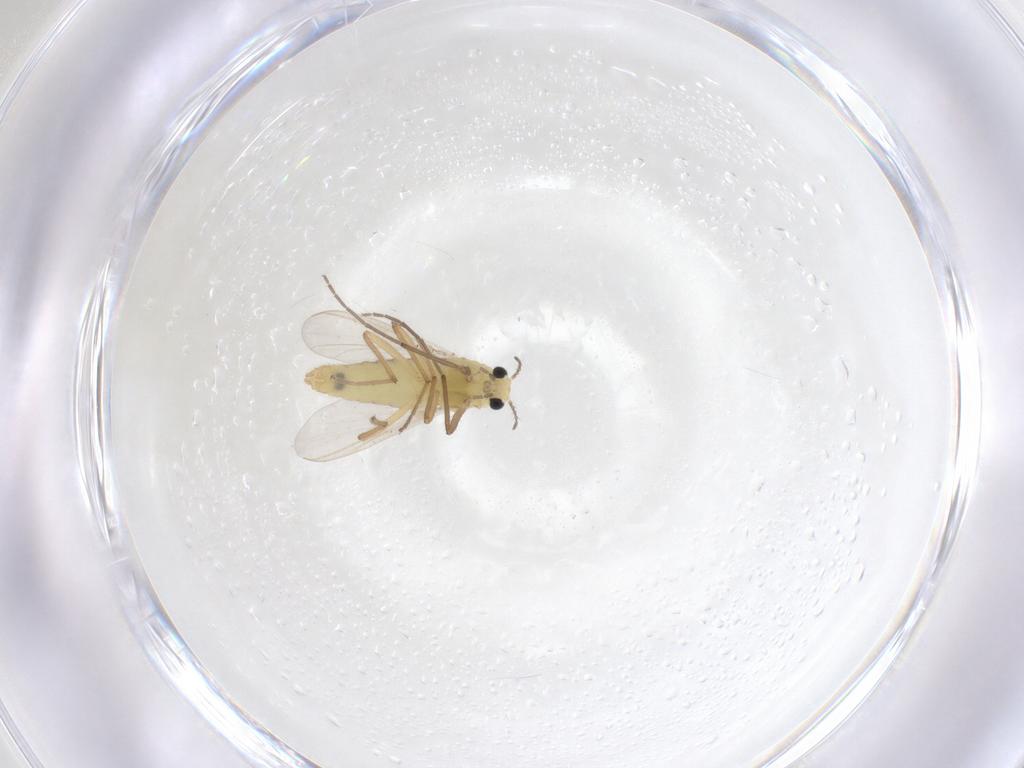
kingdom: Animalia
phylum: Arthropoda
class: Insecta
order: Diptera
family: Chironomidae
